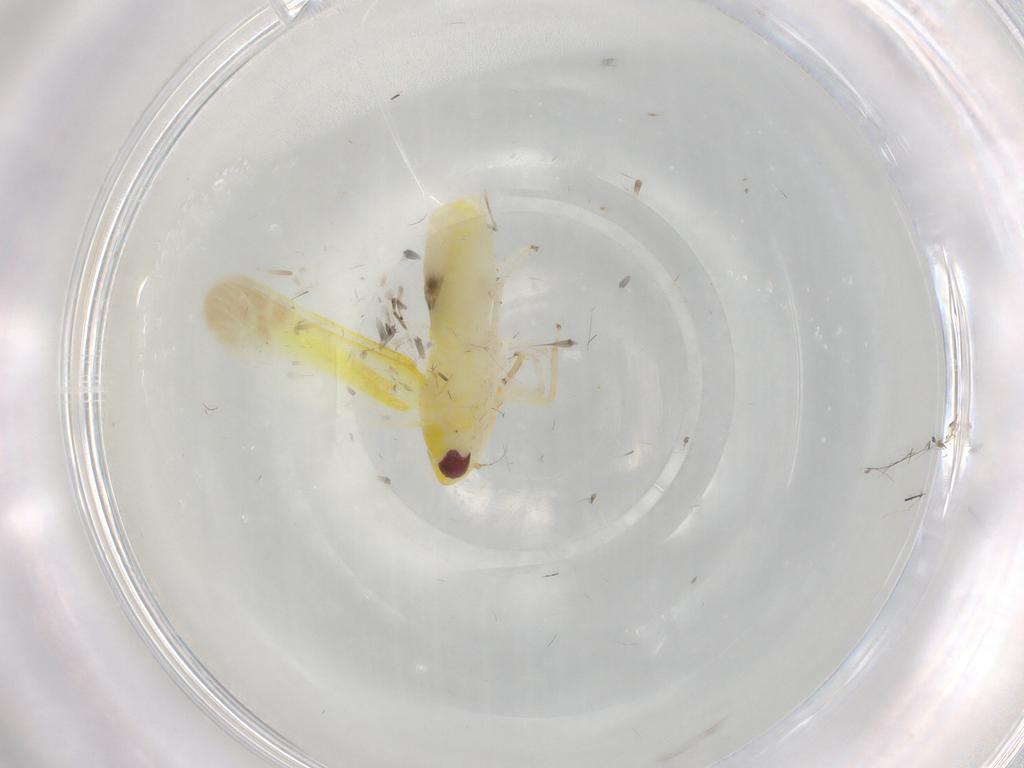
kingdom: Animalia
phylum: Arthropoda
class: Insecta
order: Hemiptera
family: Cicadellidae
